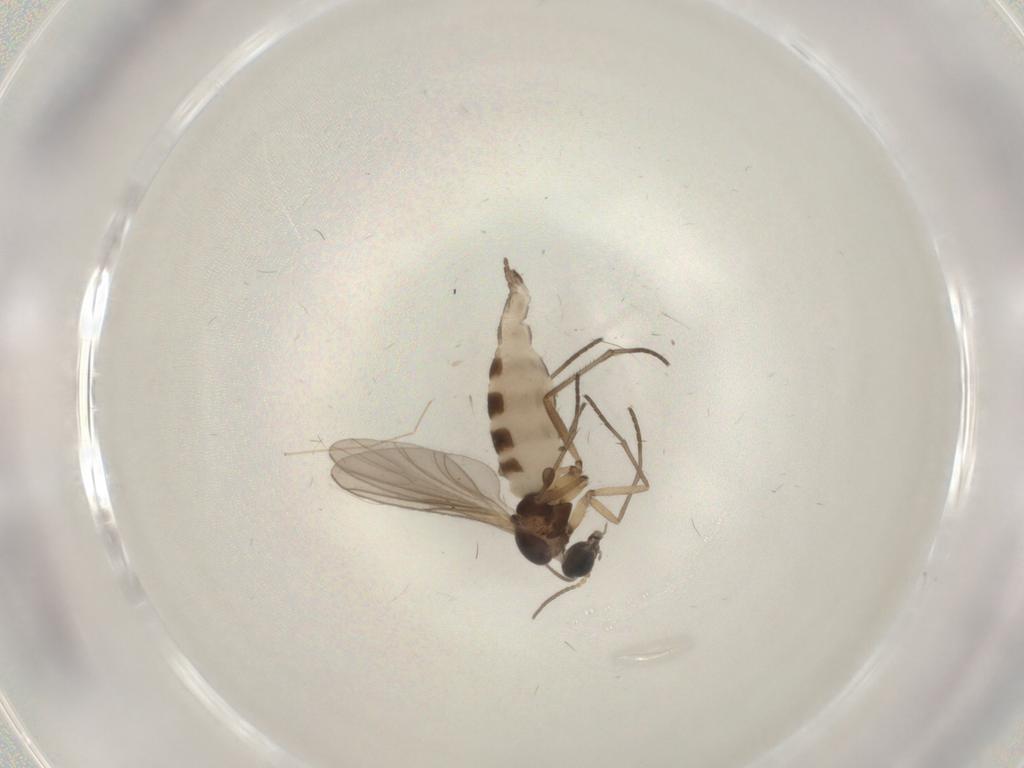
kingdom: Animalia
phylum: Arthropoda
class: Insecta
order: Diptera
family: Sciaridae
